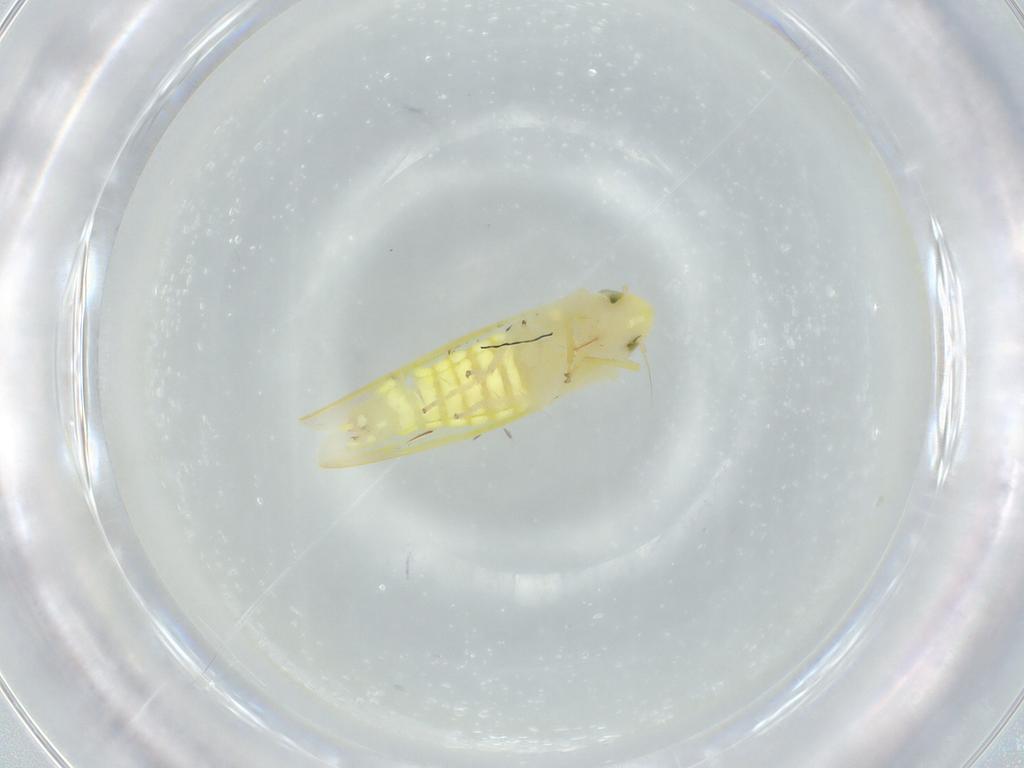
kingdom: Animalia
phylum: Arthropoda
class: Insecta
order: Hemiptera
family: Cicadellidae
